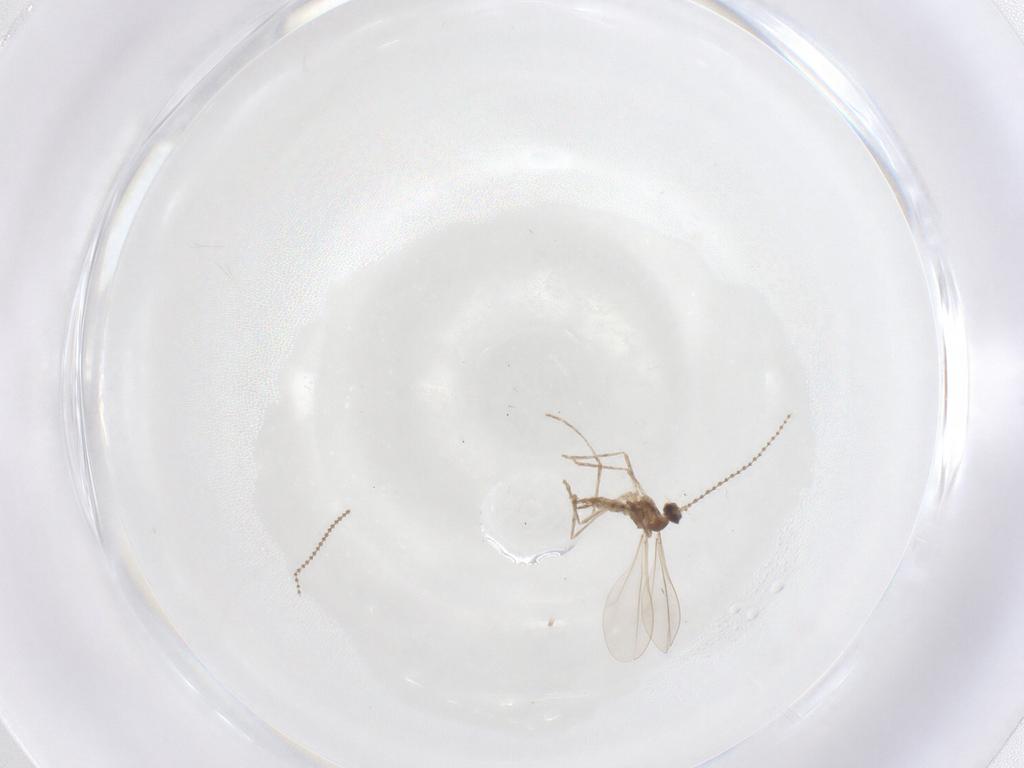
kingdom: Animalia
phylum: Arthropoda
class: Insecta
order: Diptera
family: Cecidomyiidae
